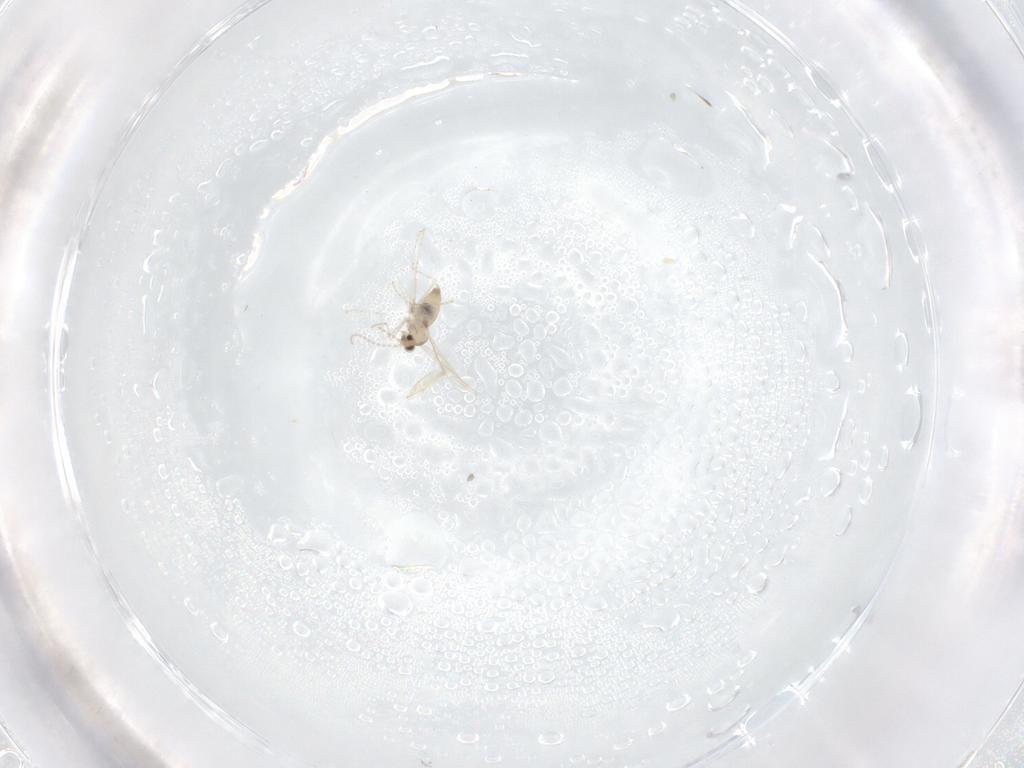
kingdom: Animalia
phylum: Arthropoda
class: Insecta
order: Diptera
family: Cecidomyiidae
